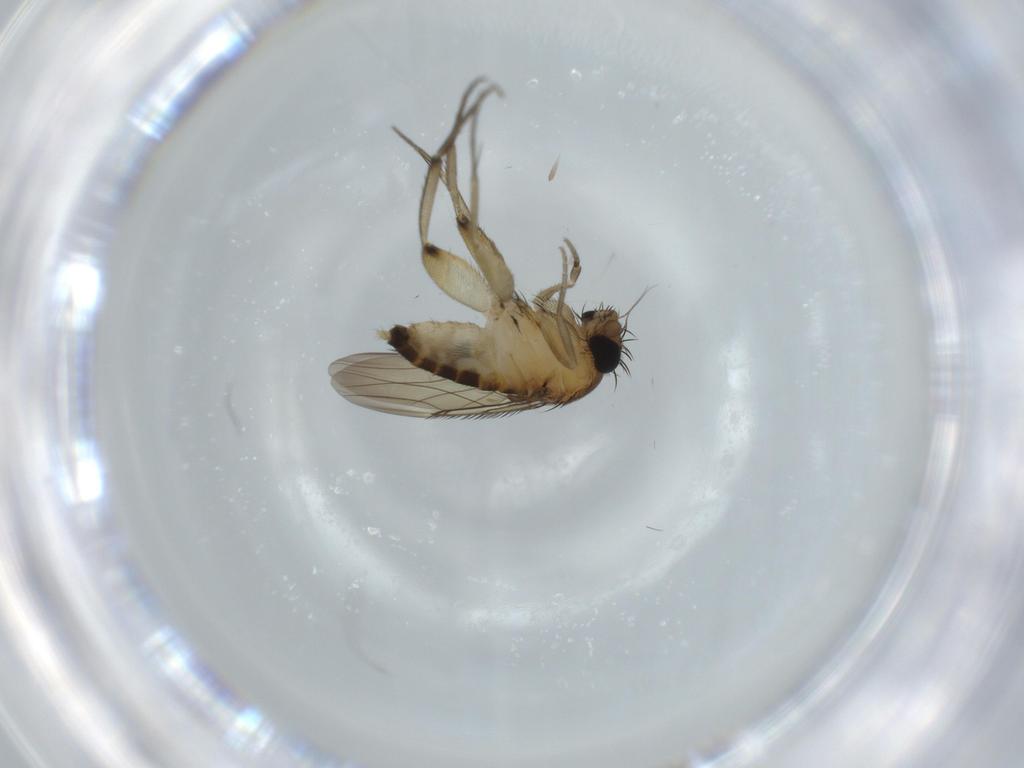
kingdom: Animalia
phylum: Arthropoda
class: Insecta
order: Diptera
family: Phoridae
